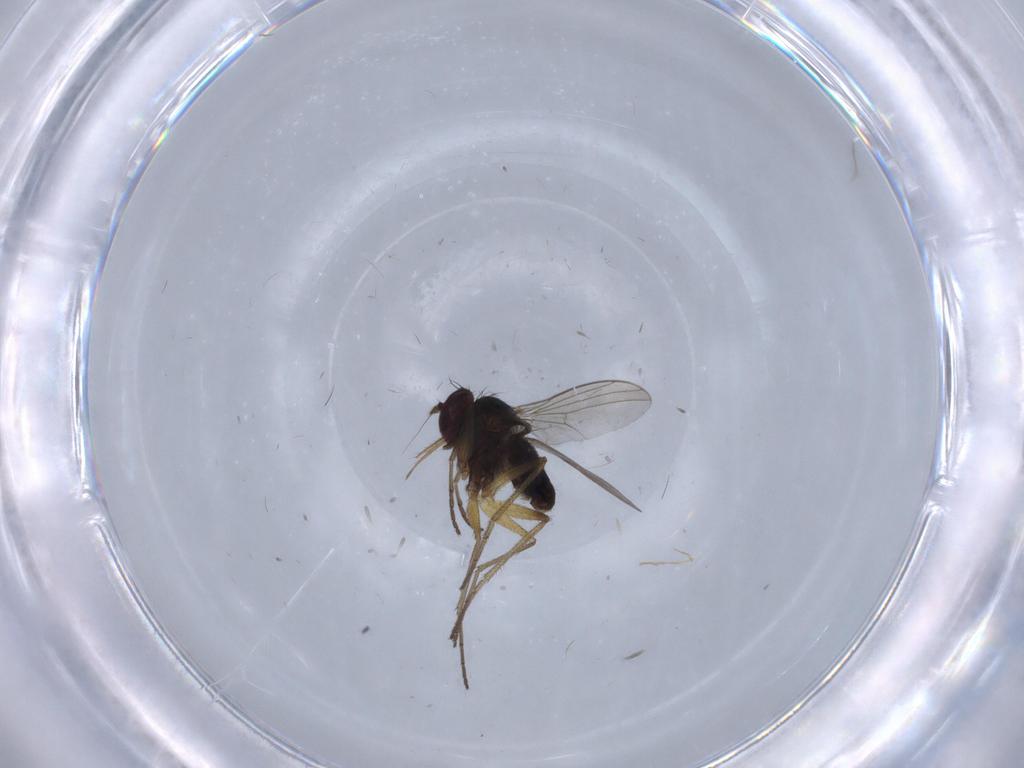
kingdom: Animalia
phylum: Arthropoda
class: Insecta
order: Diptera
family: Dolichopodidae
